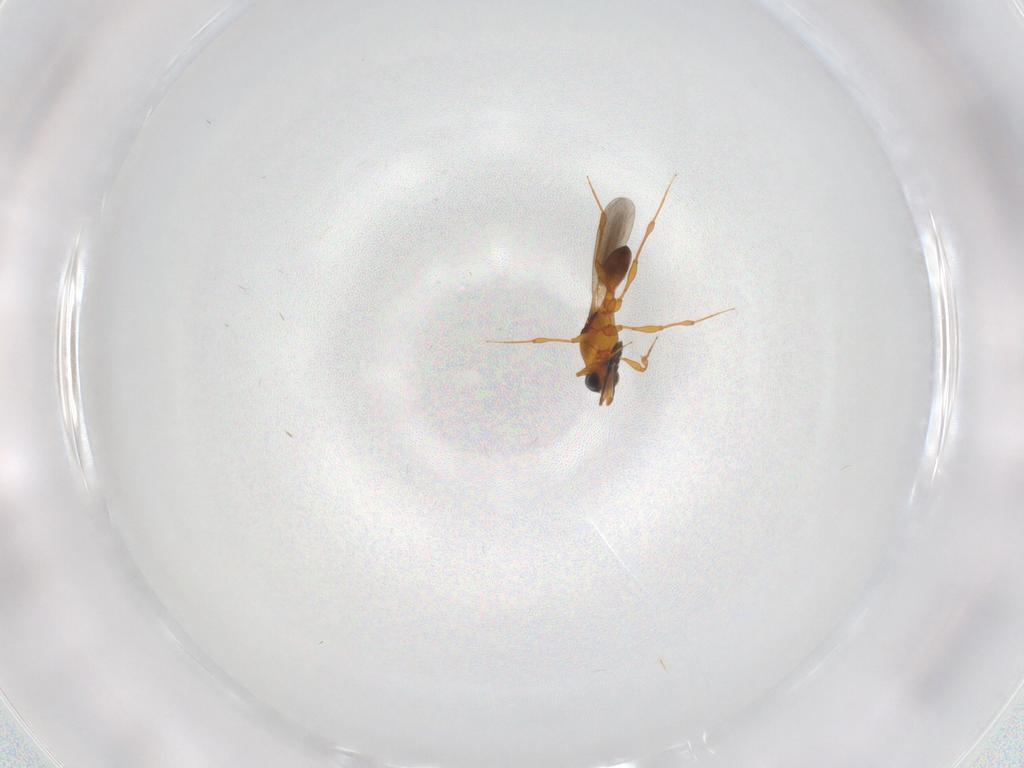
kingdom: Animalia
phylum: Arthropoda
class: Insecta
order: Hymenoptera
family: Platygastridae
